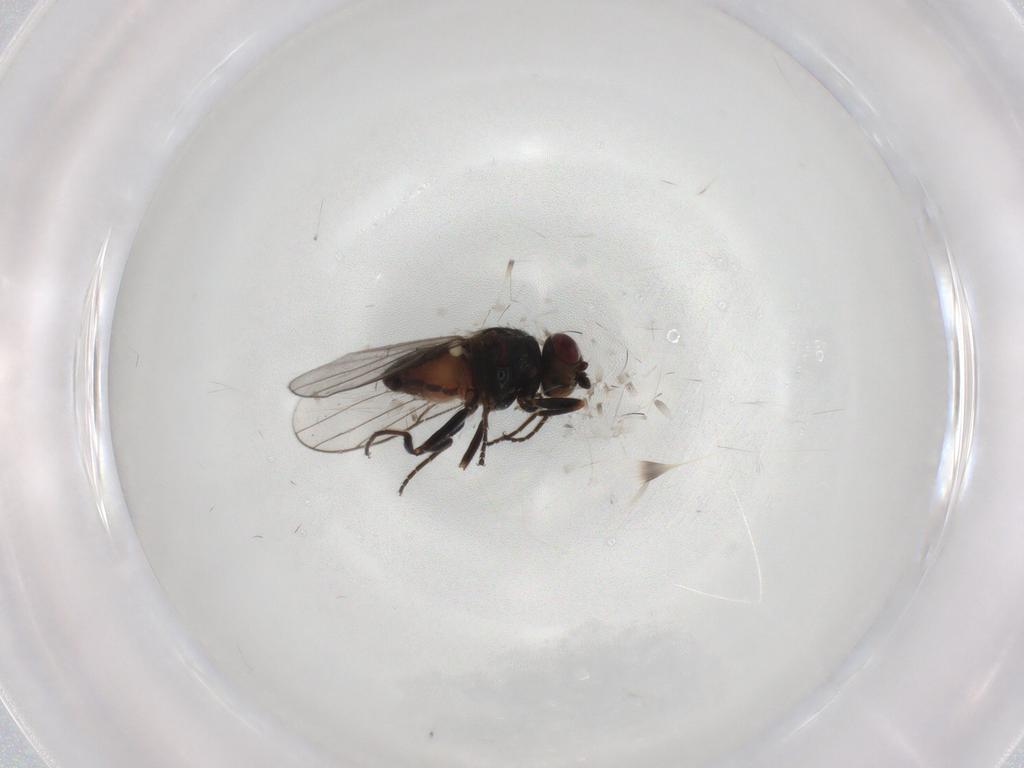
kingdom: Animalia
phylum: Arthropoda
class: Insecta
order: Diptera
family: Chloropidae
